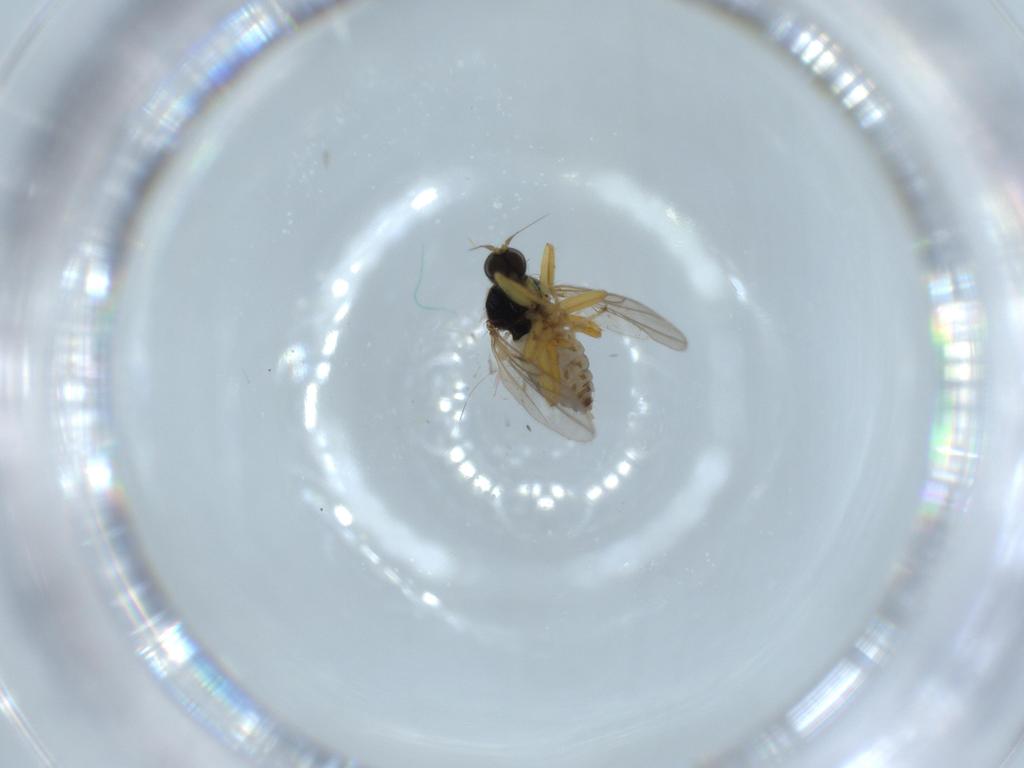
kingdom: Animalia
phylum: Arthropoda
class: Insecta
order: Diptera
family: Hybotidae
